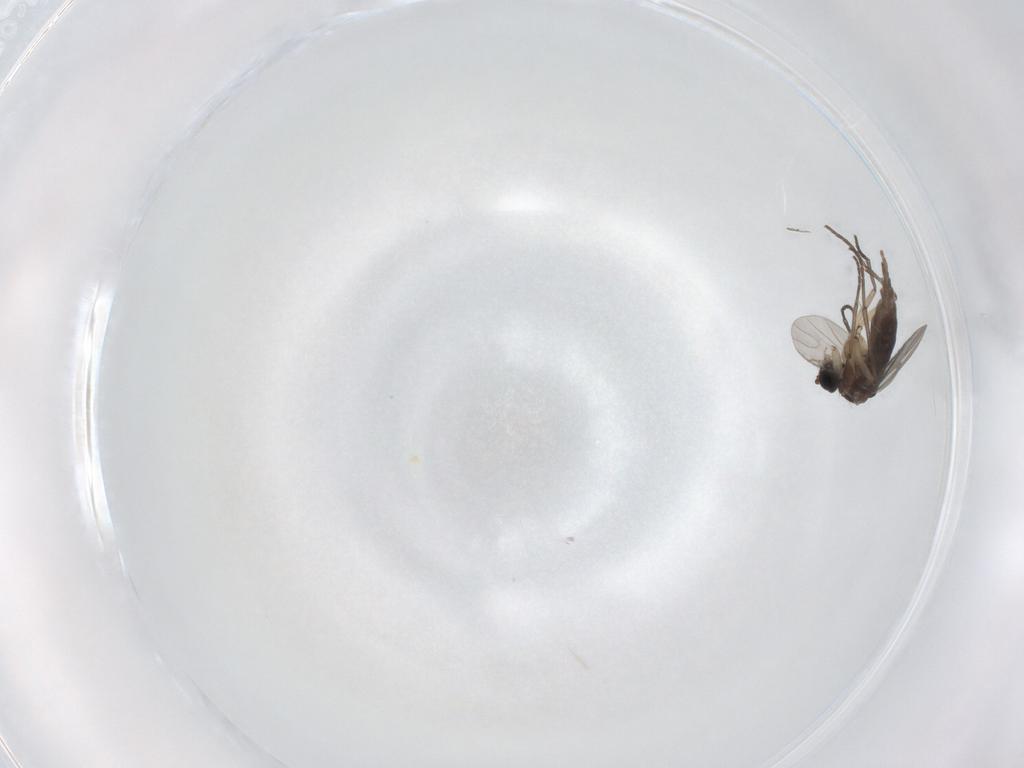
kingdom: Animalia
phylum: Arthropoda
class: Insecta
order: Diptera
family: Sciaridae
